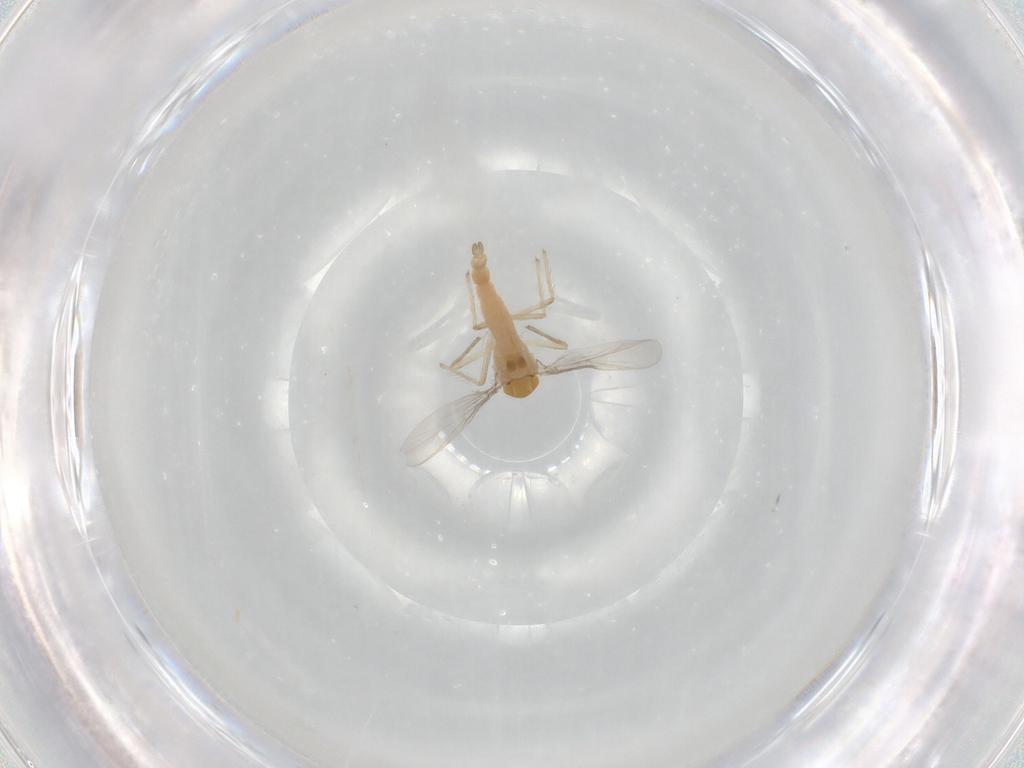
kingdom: Animalia
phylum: Arthropoda
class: Insecta
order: Diptera
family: Chironomidae
